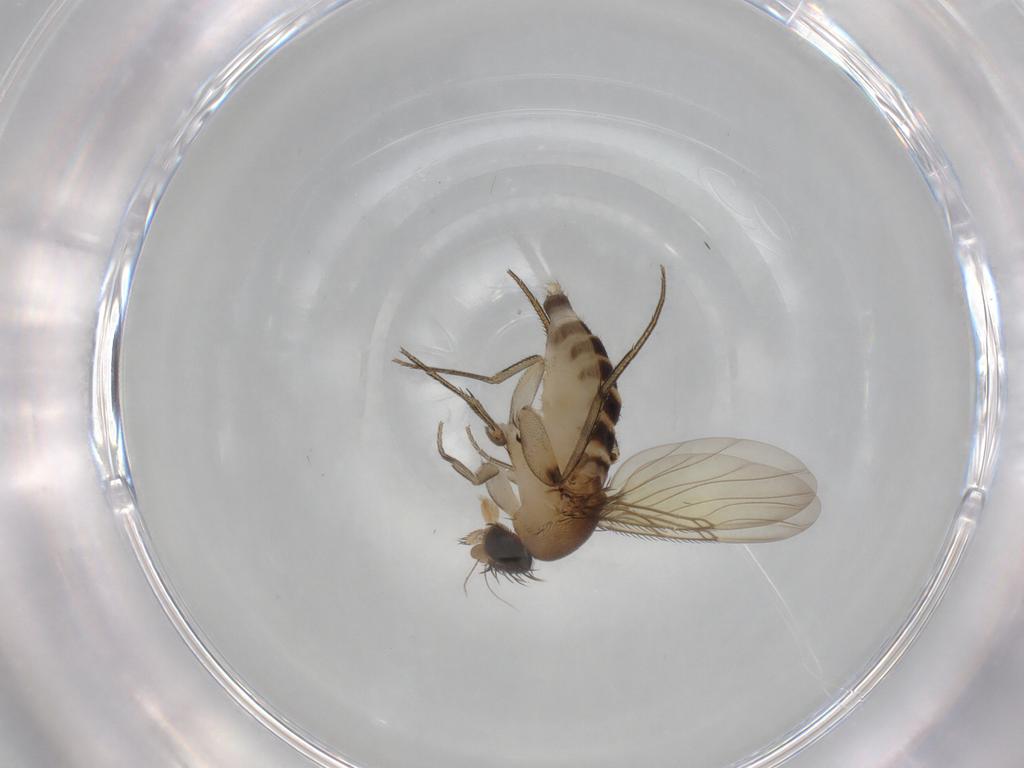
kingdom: Animalia
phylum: Arthropoda
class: Insecta
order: Diptera
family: Phoridae
